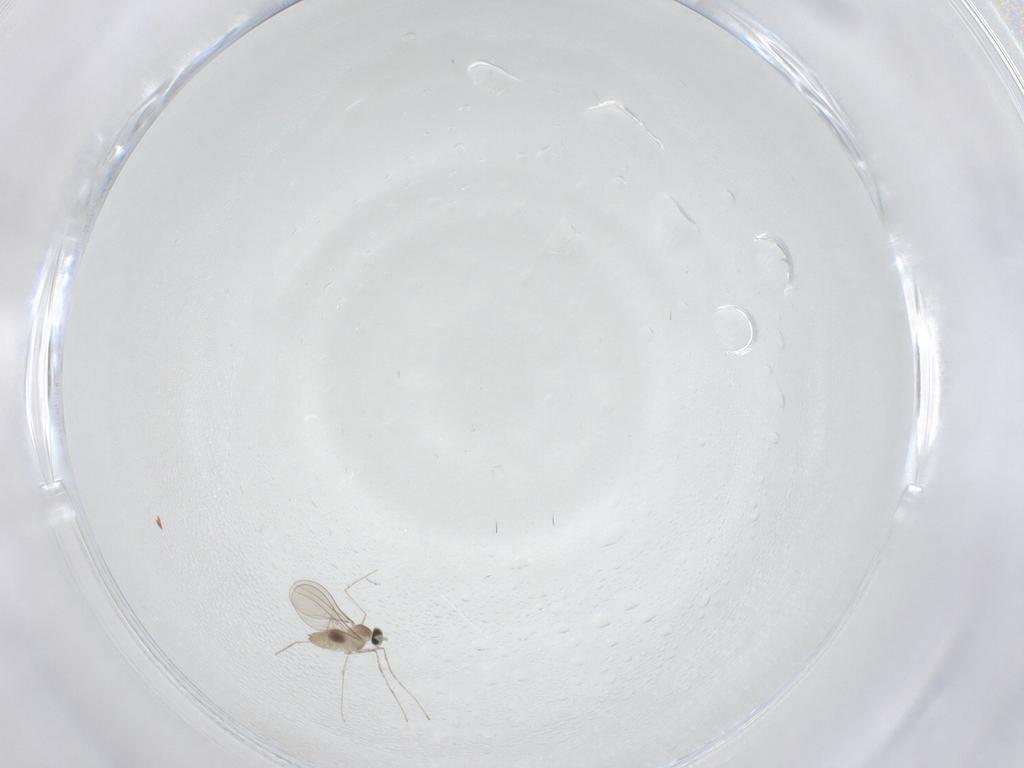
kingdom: Animalia
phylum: Arthropoda
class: Insecta
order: Diptera
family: Cecidomyiidae
